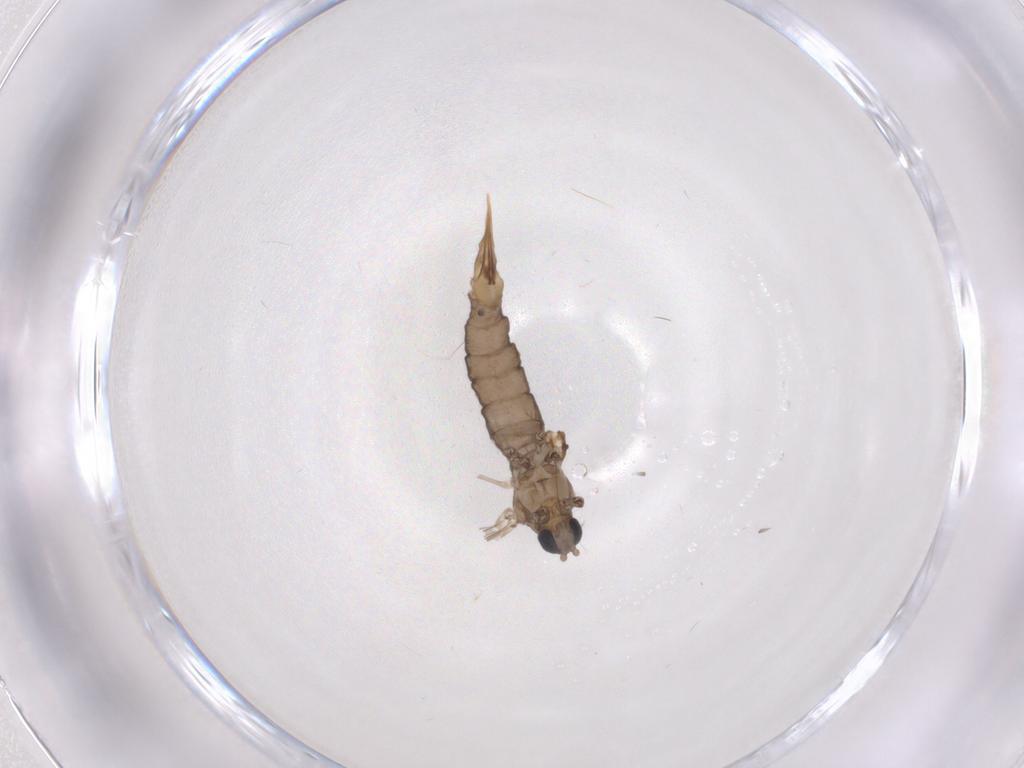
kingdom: Animalia
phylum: Arthropoda
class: Insecta
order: Diptera
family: Limoniidae
